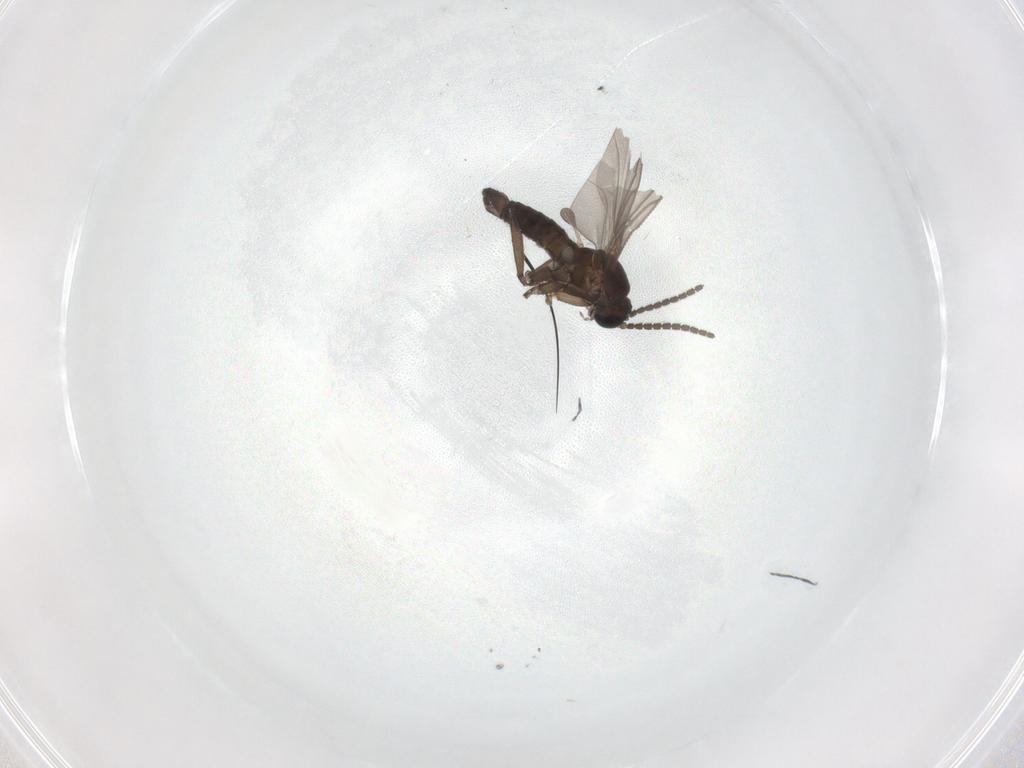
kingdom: Animalia
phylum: Arthropoda
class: Insecta
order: Diptera
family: Sciaridae
